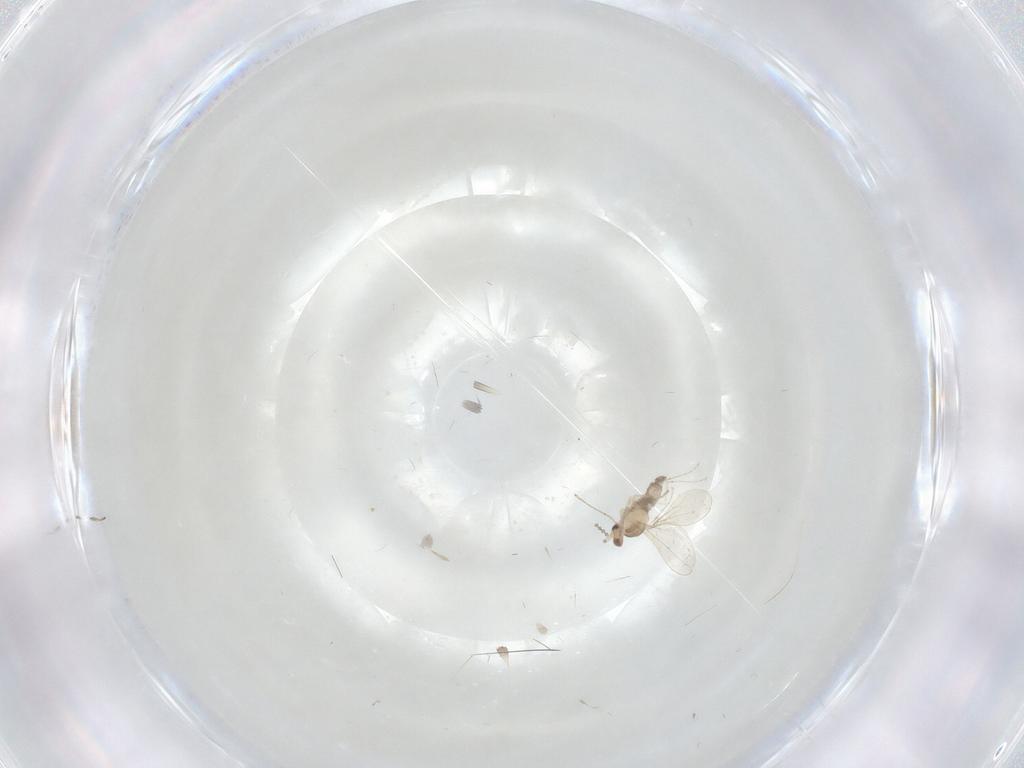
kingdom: Animalia
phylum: Arthropoda
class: Insecta
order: Diptera
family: Cecidomyiidae
